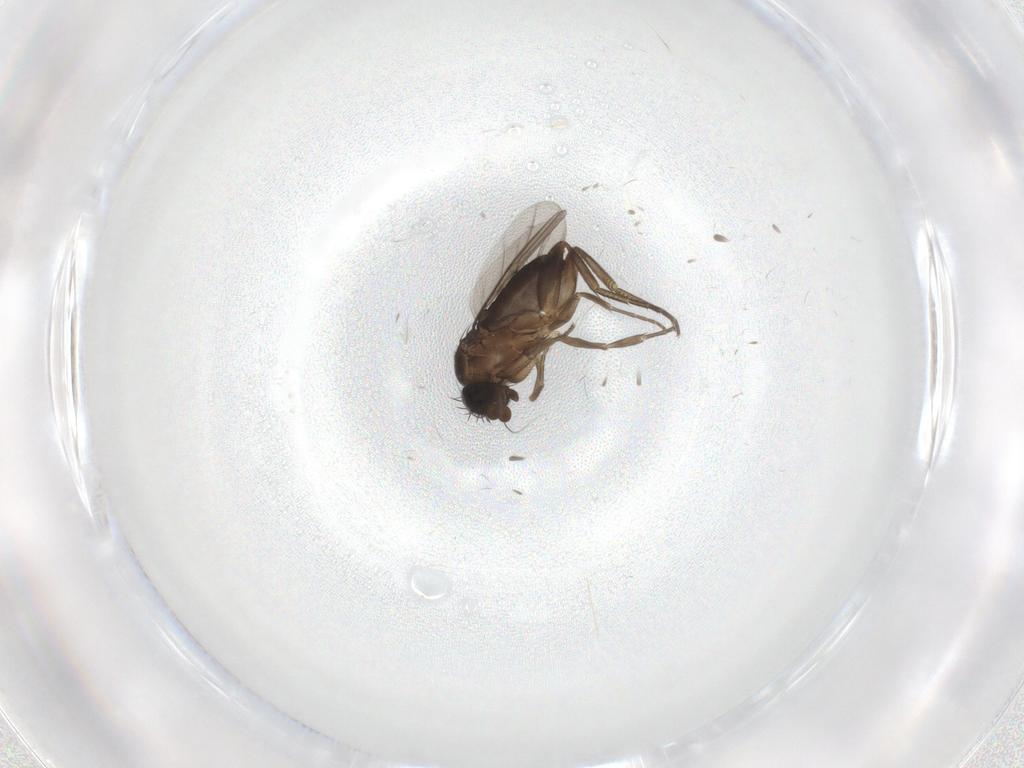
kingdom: Animalia
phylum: Arthropoda
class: Insecta
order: Diptera
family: Phoridae
